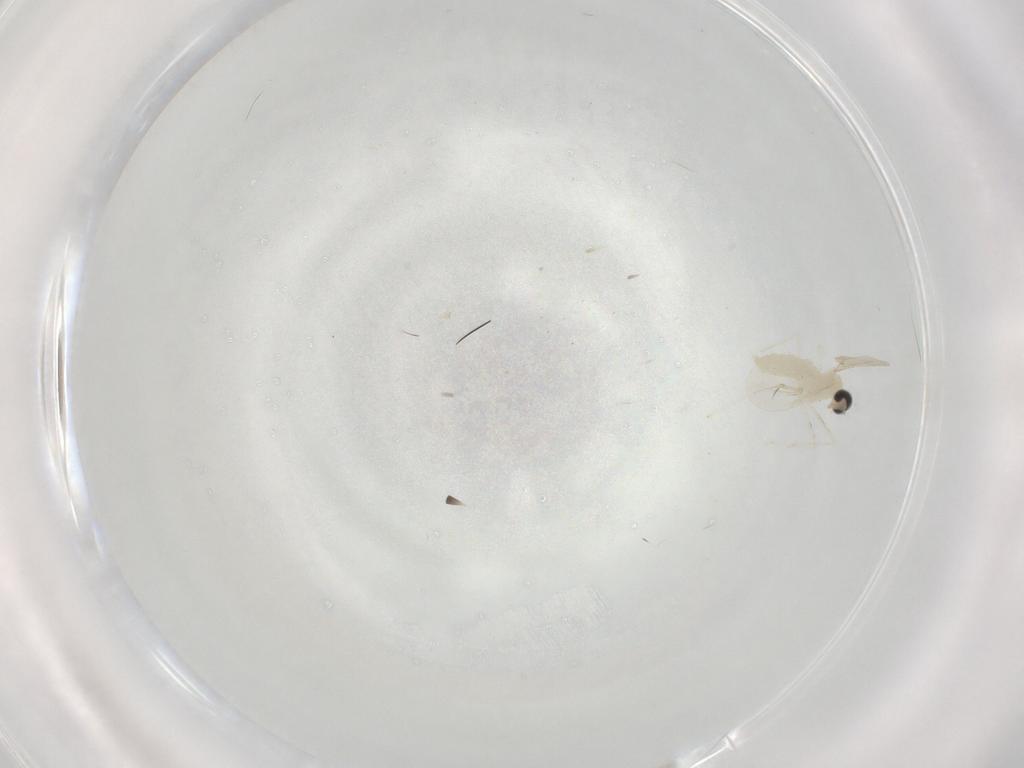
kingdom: Animalia
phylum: Arthropoda
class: Insecta
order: Diptera
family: Cecidomyiidae
